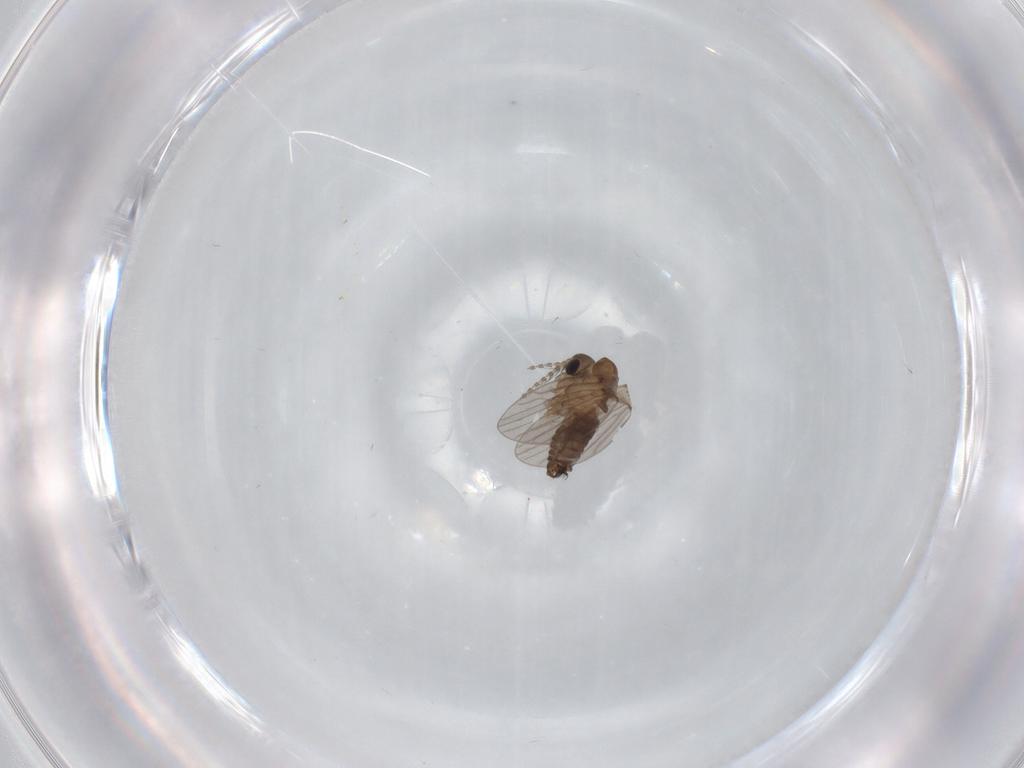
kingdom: Animalia
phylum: Arthropoda
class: Insecta
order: Diptera
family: Cecidomyiidae
